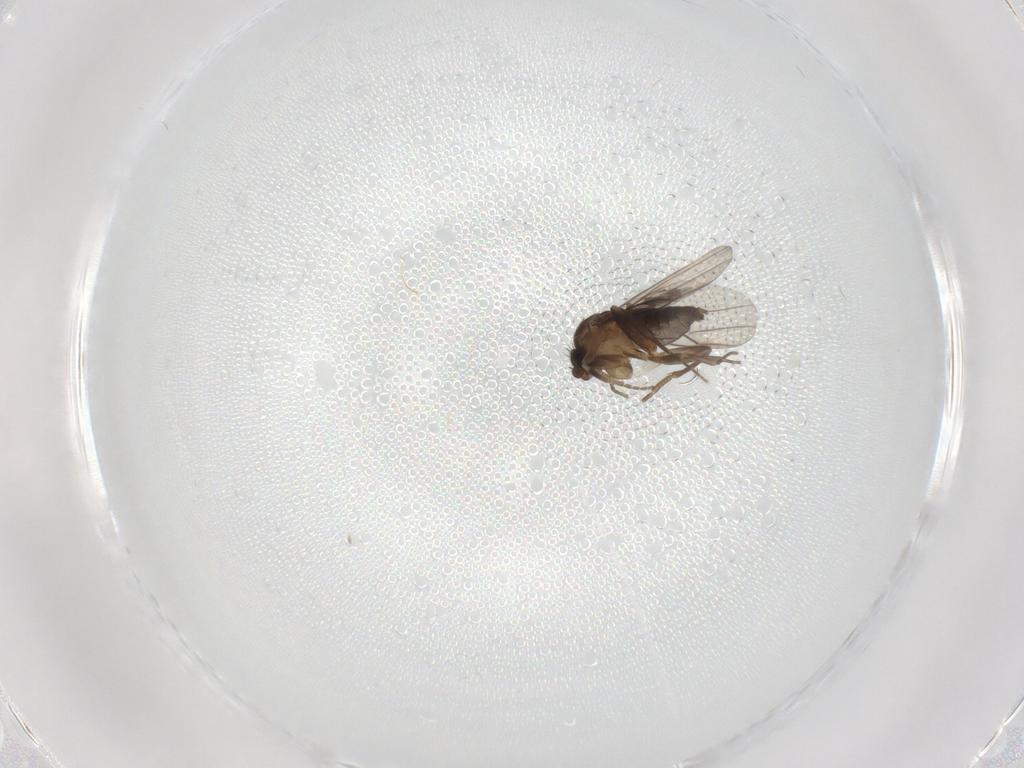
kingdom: Animalia
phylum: Arthropoda
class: Insecta
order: Diptera
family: Phoridae
